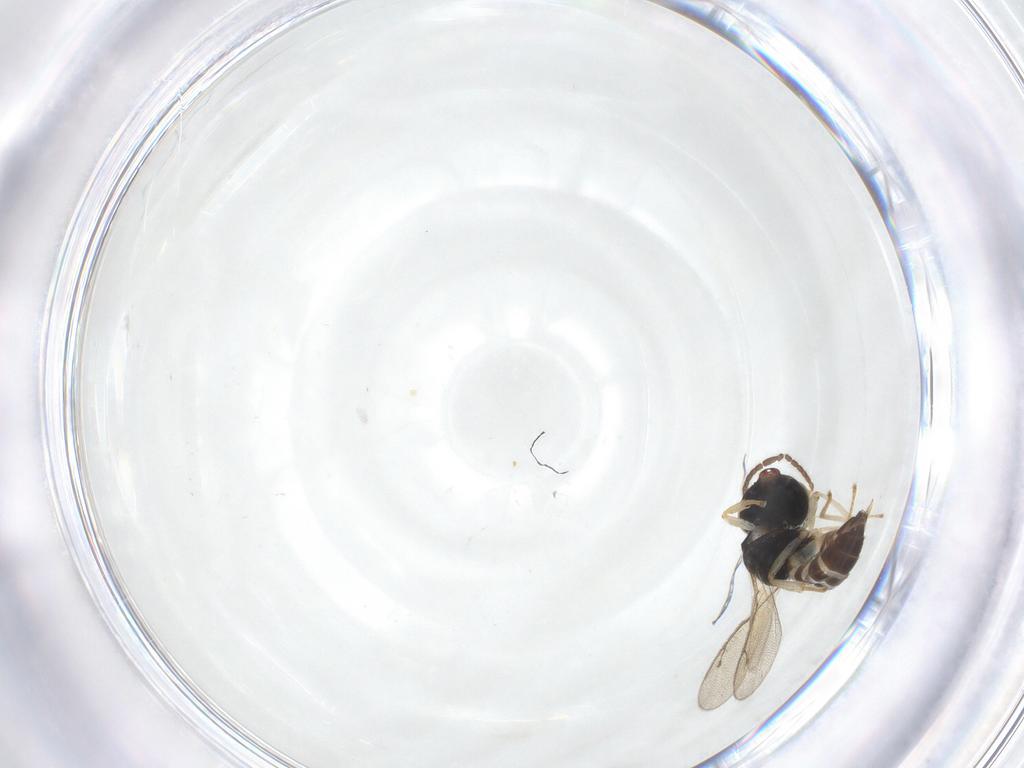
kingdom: Animalia
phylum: Arthropoda
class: Insecta
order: Hymenoptera
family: Pteromalidae
